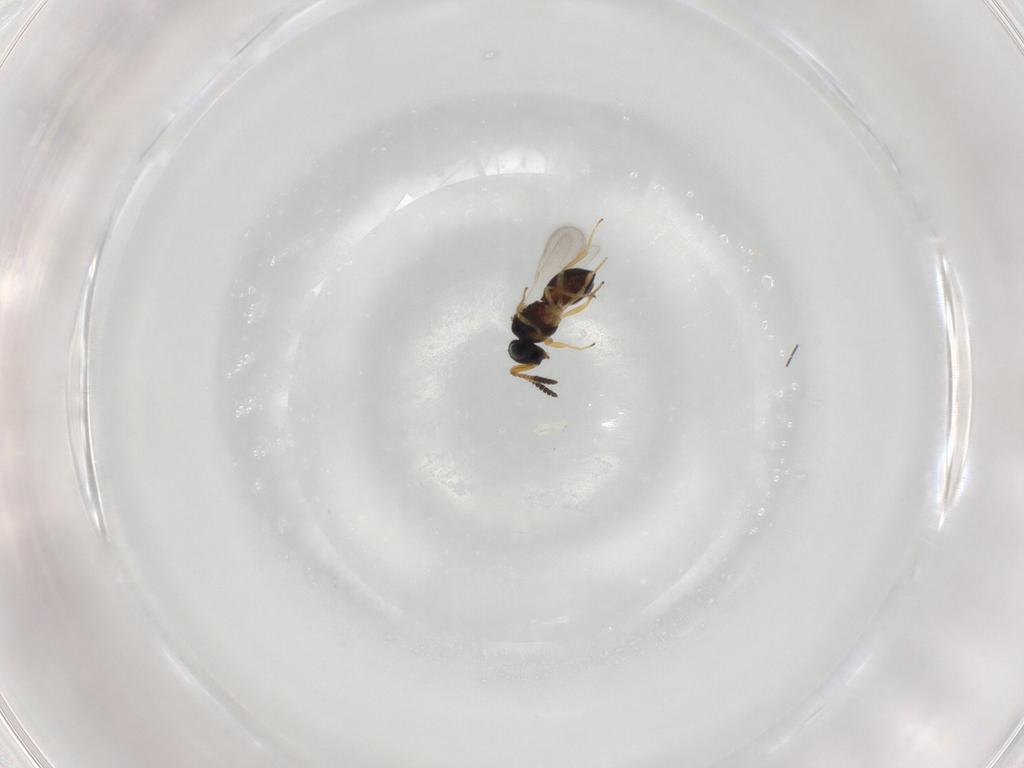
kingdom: Animalia
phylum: Arthropoda
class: Insecta
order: Hymenoptera
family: Scelionidae
